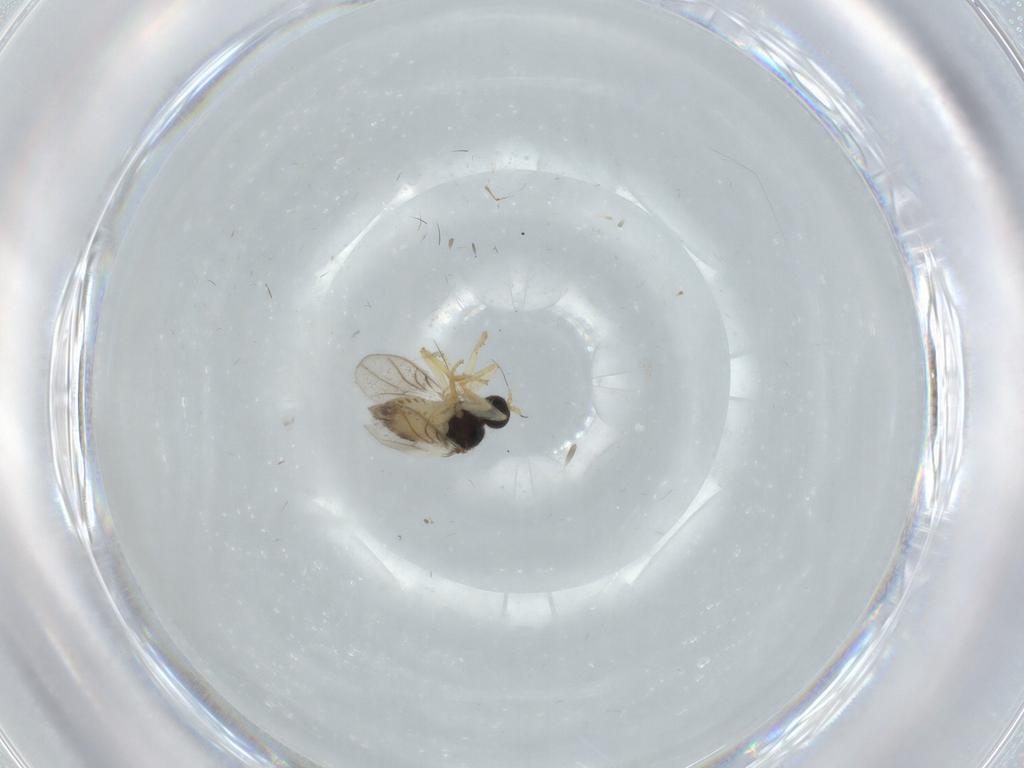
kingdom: Animalia
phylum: Arthropoda
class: Insecta
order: Diptera
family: Hybotidae
